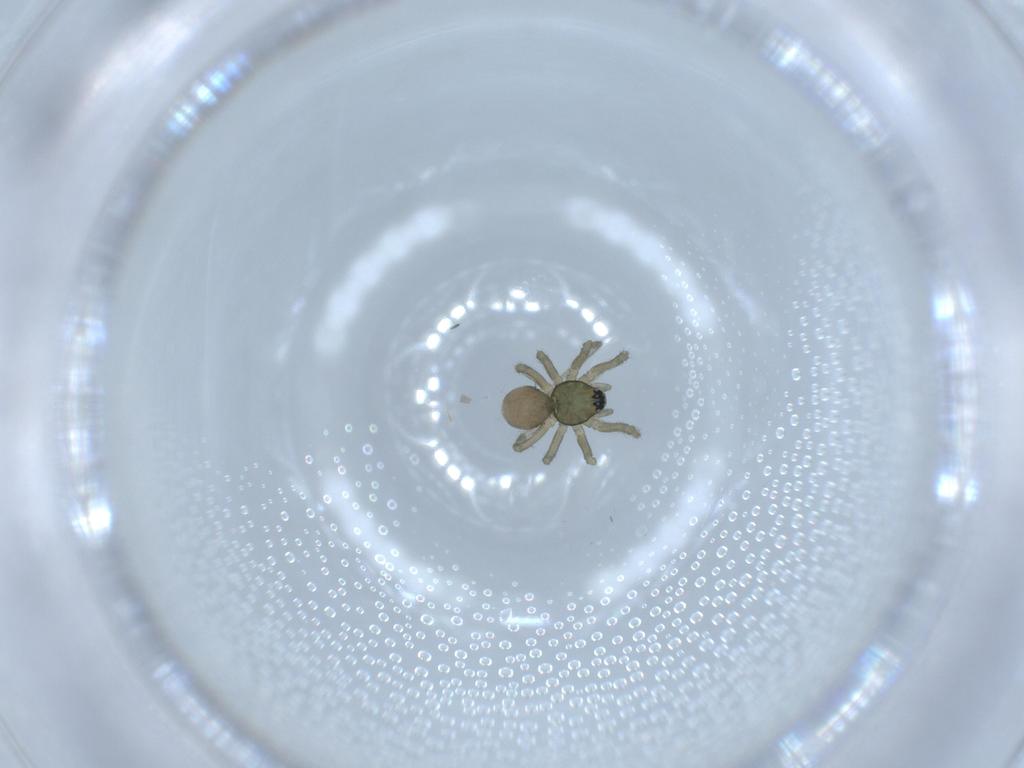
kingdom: Animalia
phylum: Arthropoda
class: Arachnida
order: Araneae
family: Linyphiidae
